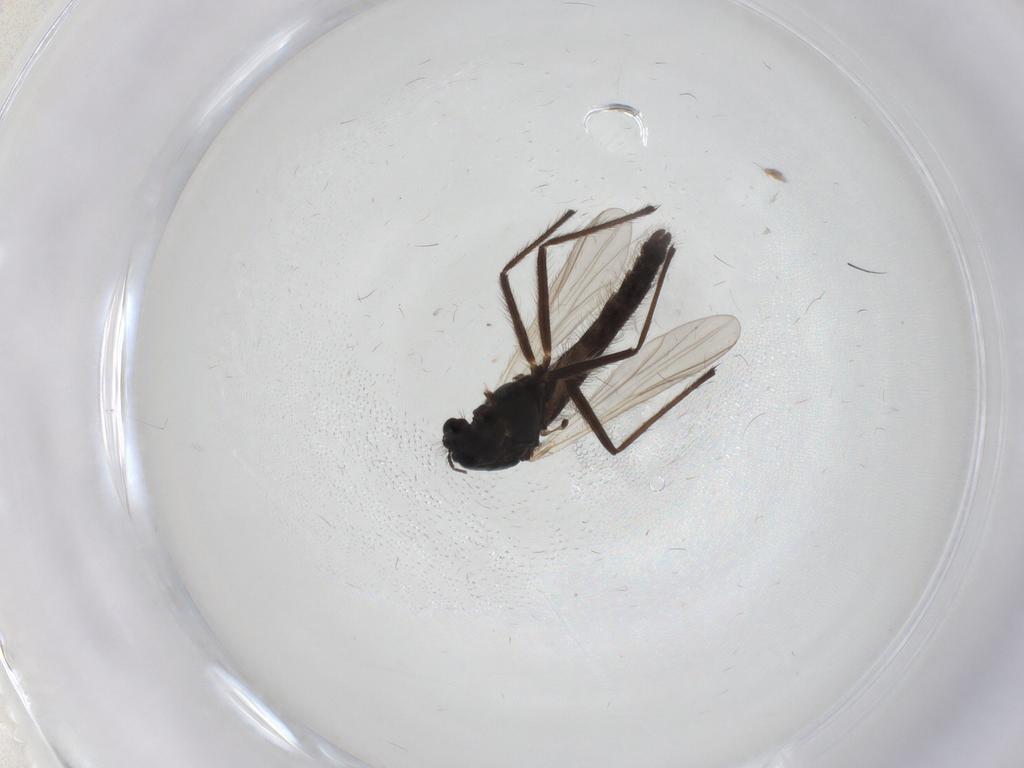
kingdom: Animalia
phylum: Arthropoda
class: Insecta
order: Diptera
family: Cecidomyiidae
